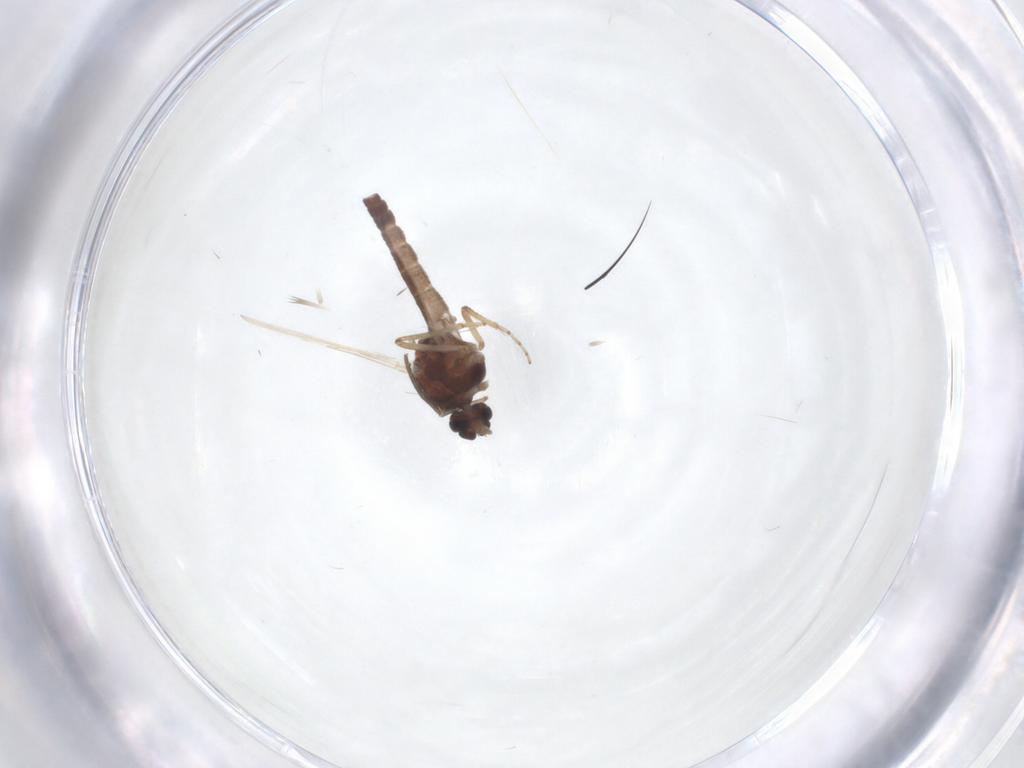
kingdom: Animalia
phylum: Arthropoda
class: Insecta
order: Diptera
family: Ceratopogonidae
